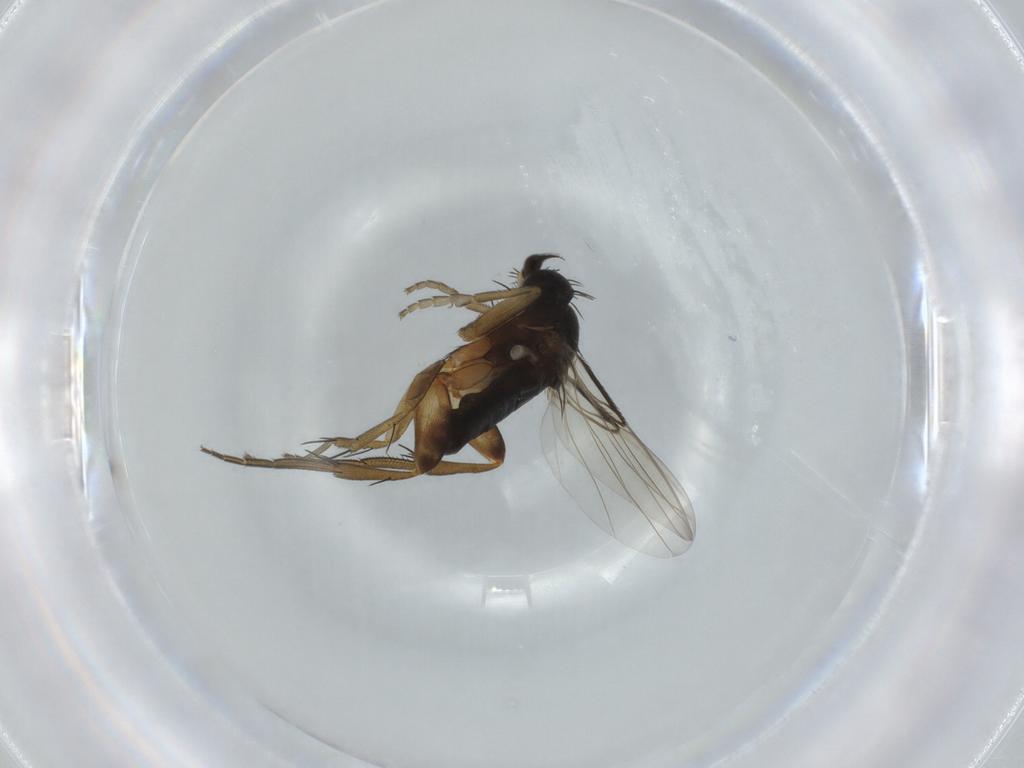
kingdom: Animalia
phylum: Arthropoda
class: Insecta
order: Diptera
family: Phoridae
